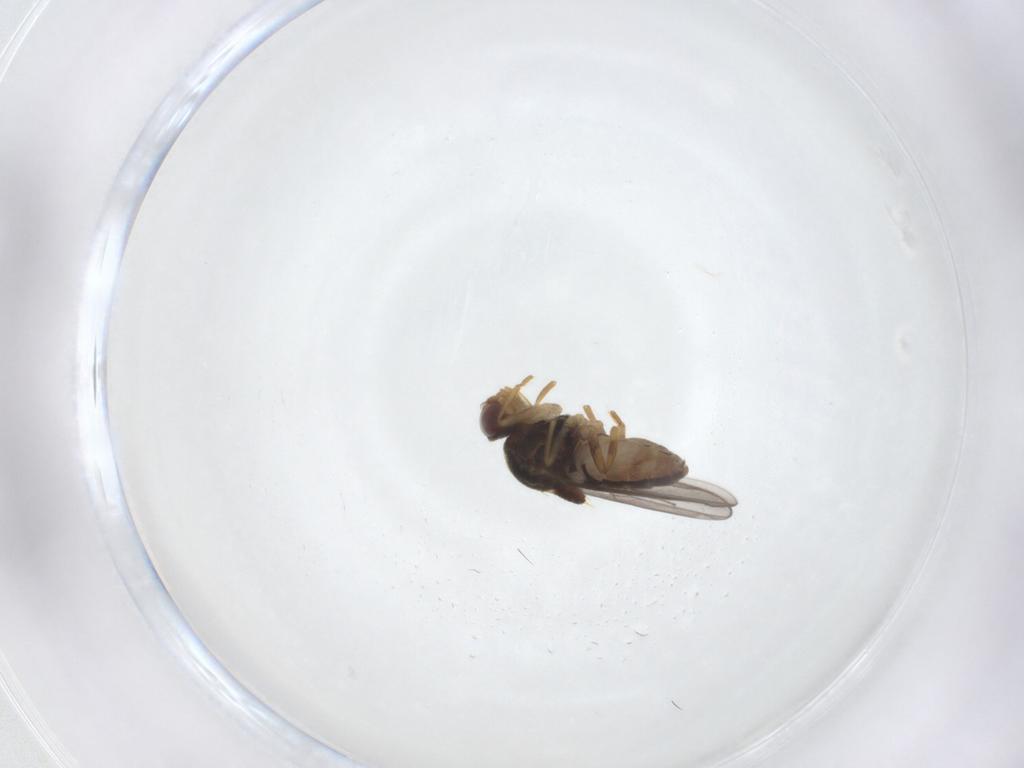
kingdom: Animalia
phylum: Arthropoda
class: Insecta
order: Diptera
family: Chloropidae
